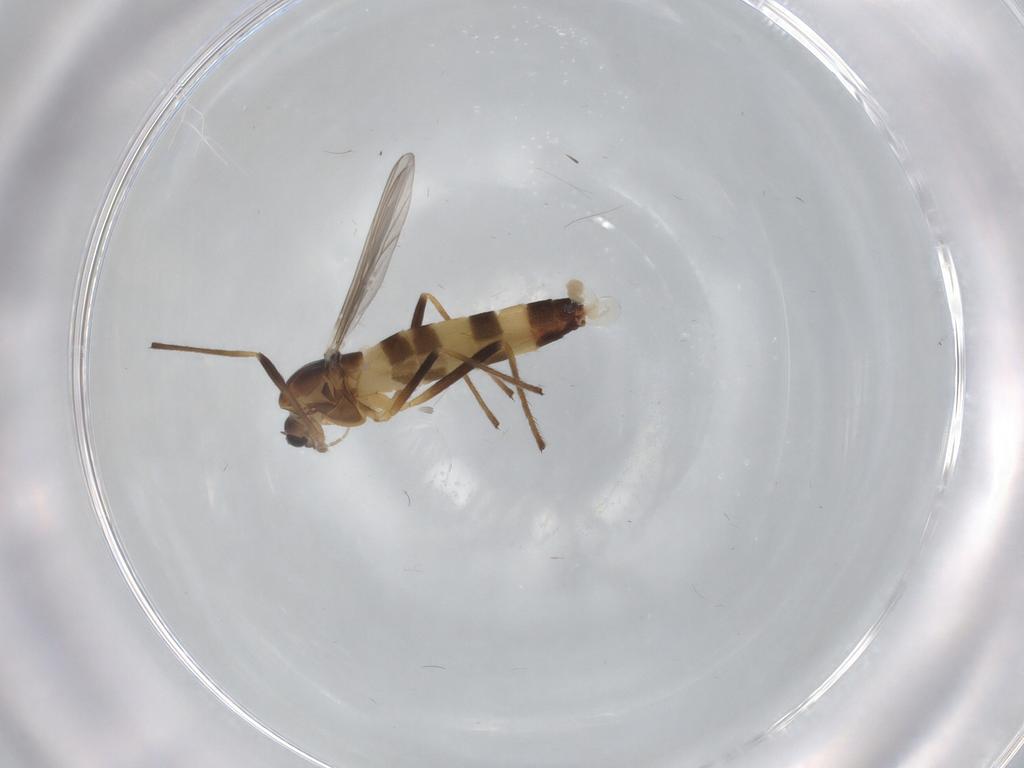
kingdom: Animalia
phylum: Arthropoda
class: Insecta
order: Diptera
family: Chironomidae
